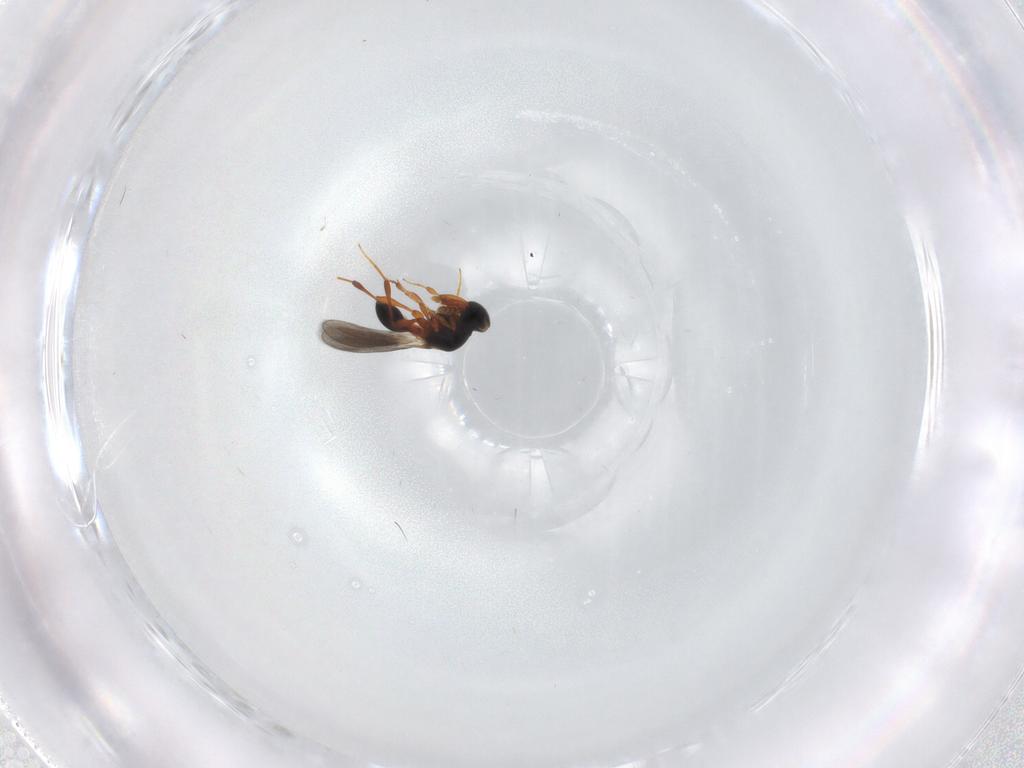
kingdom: Animalia
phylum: Arthropoda
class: Insecta
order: Hymenoptera
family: Platygastridae
